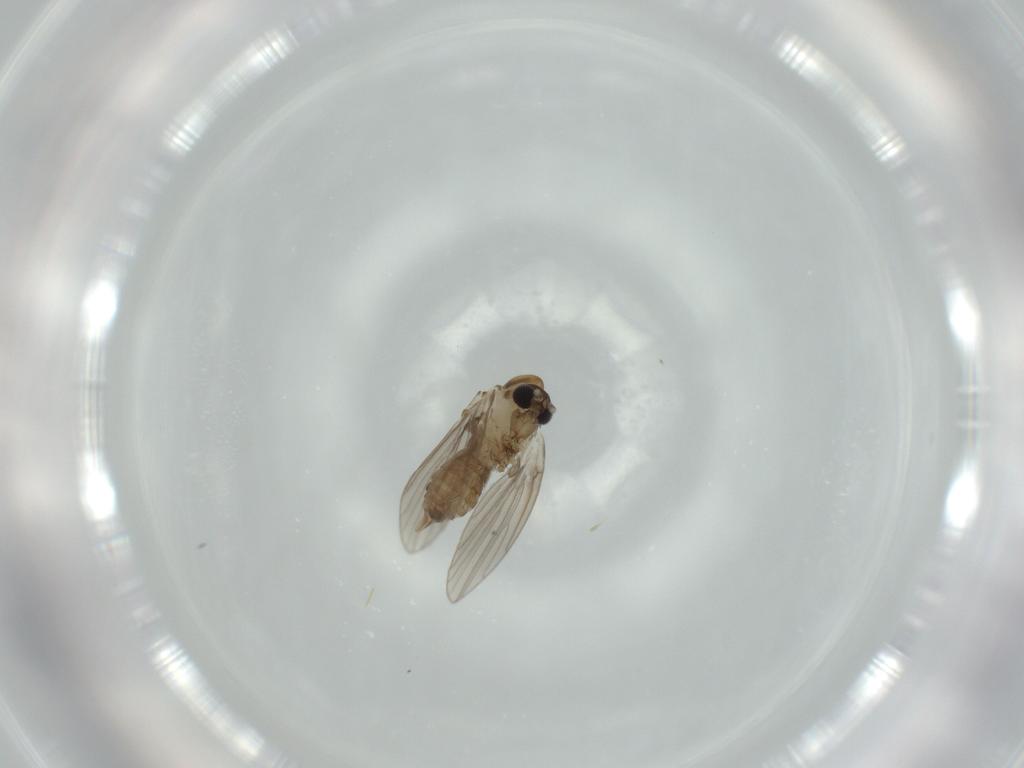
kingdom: Animalia
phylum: Arthropoda
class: Insecta
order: Diptera
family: Psychodidae
